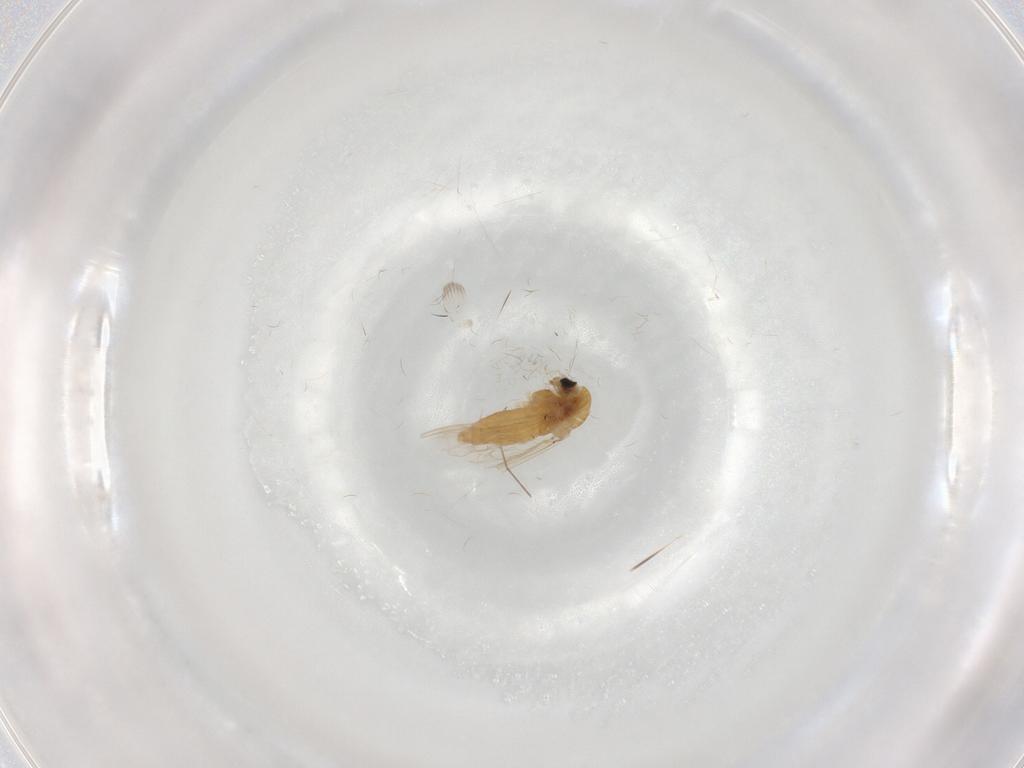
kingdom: Animalia
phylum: Arthropoda
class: Insecta
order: Diptera
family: Chironomidae
